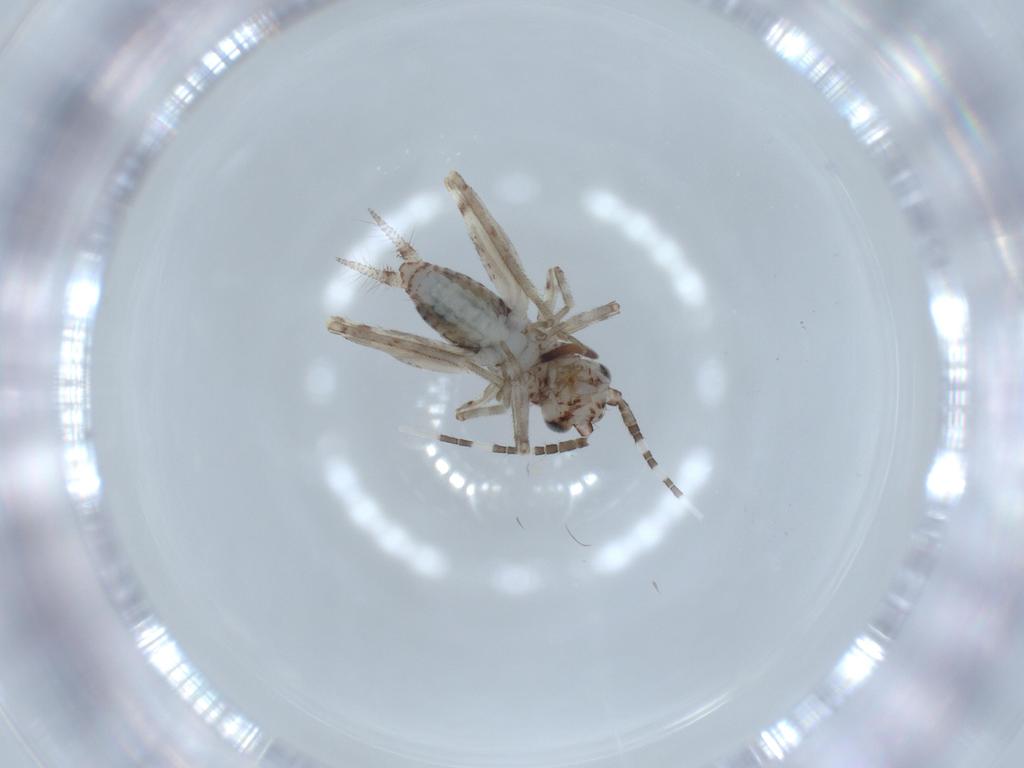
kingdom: Animalia
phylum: Arthropoda
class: Insecta
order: Orthoptera
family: Trigonidiidae
